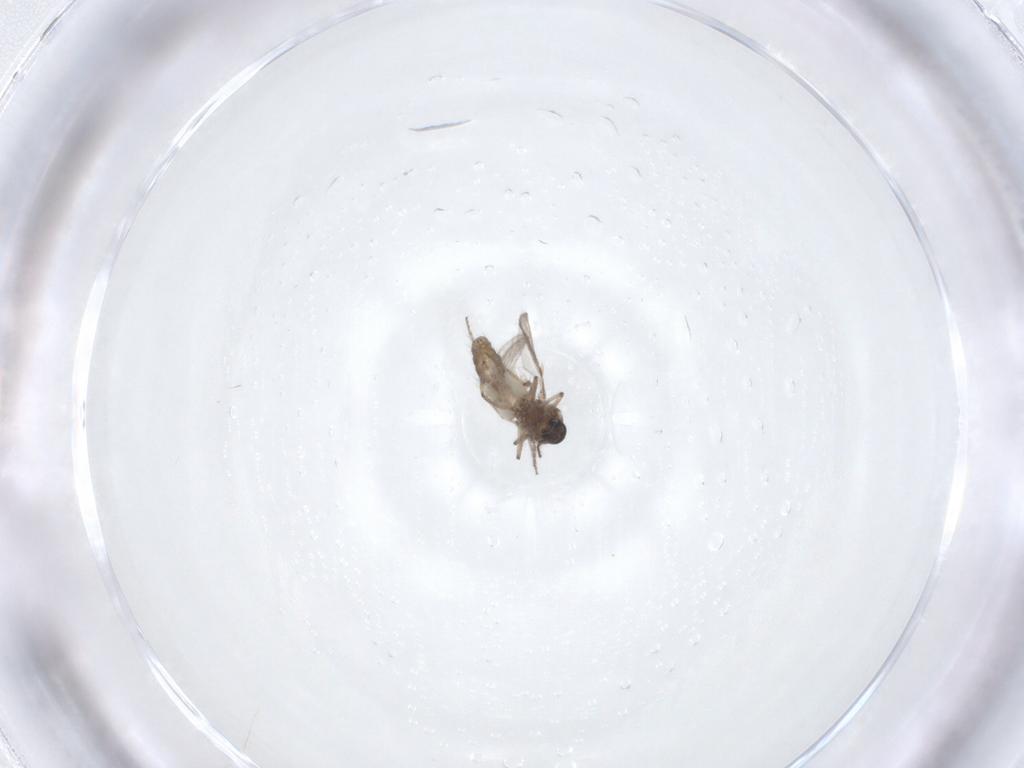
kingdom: Animalia
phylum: Arthropoda
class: Insecta
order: Diptera
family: Ceratopogonidae
